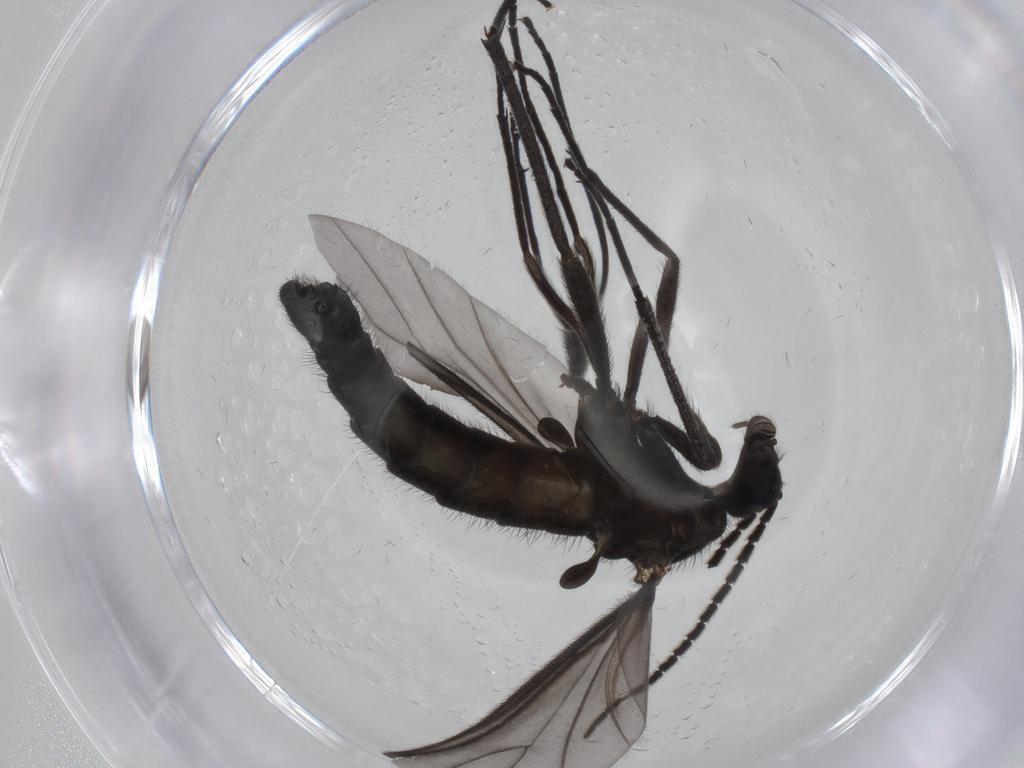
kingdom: Animalia
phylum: Arthropoda
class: Insecta
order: Diptera
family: Sciaridae
